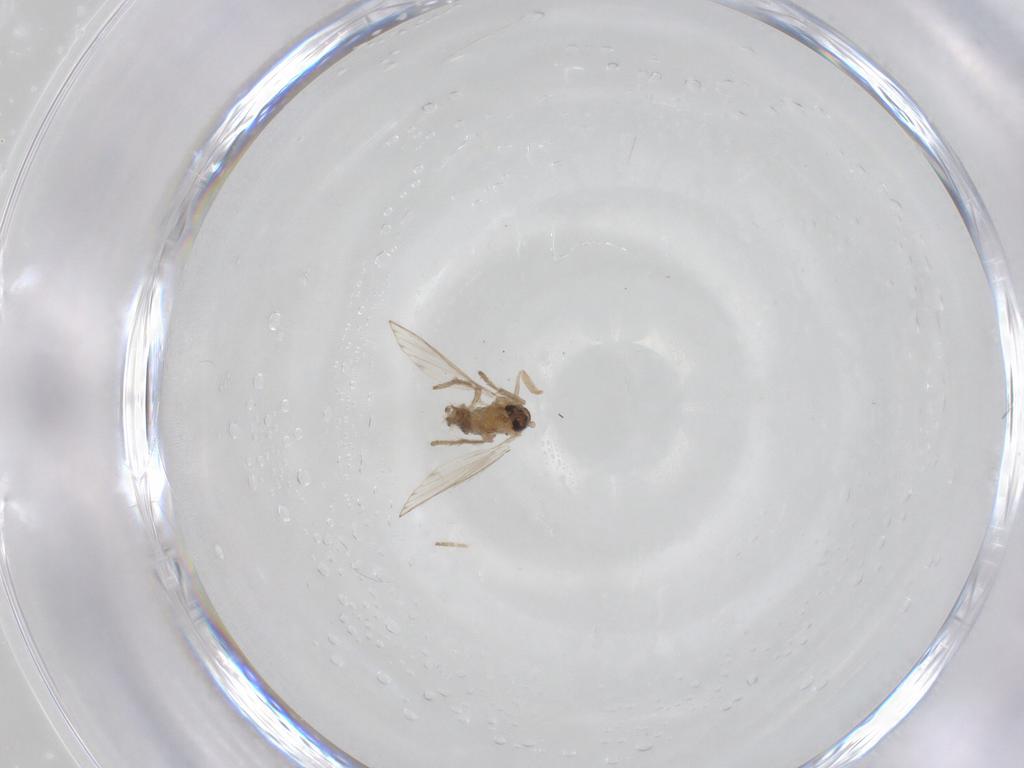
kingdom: Animalia
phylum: Arthropoda
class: Insecta
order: Diptera
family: Psychodidae
